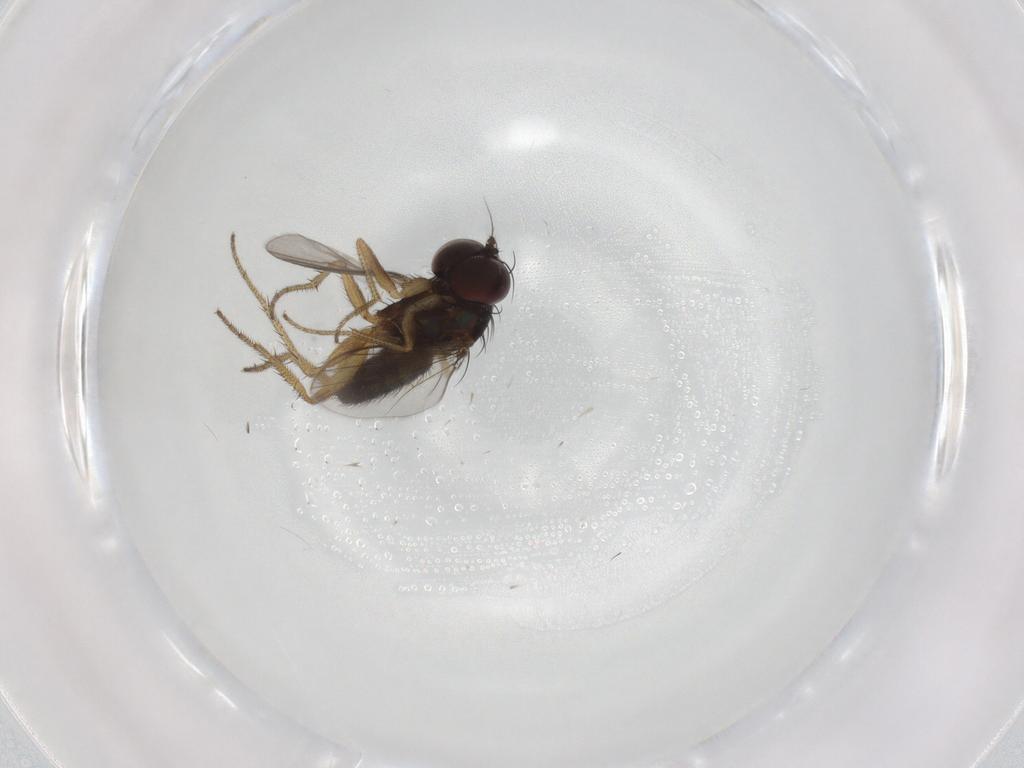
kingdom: Animalia
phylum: Arthropoda
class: Insecta
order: Diptera
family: Dolichopodidae
